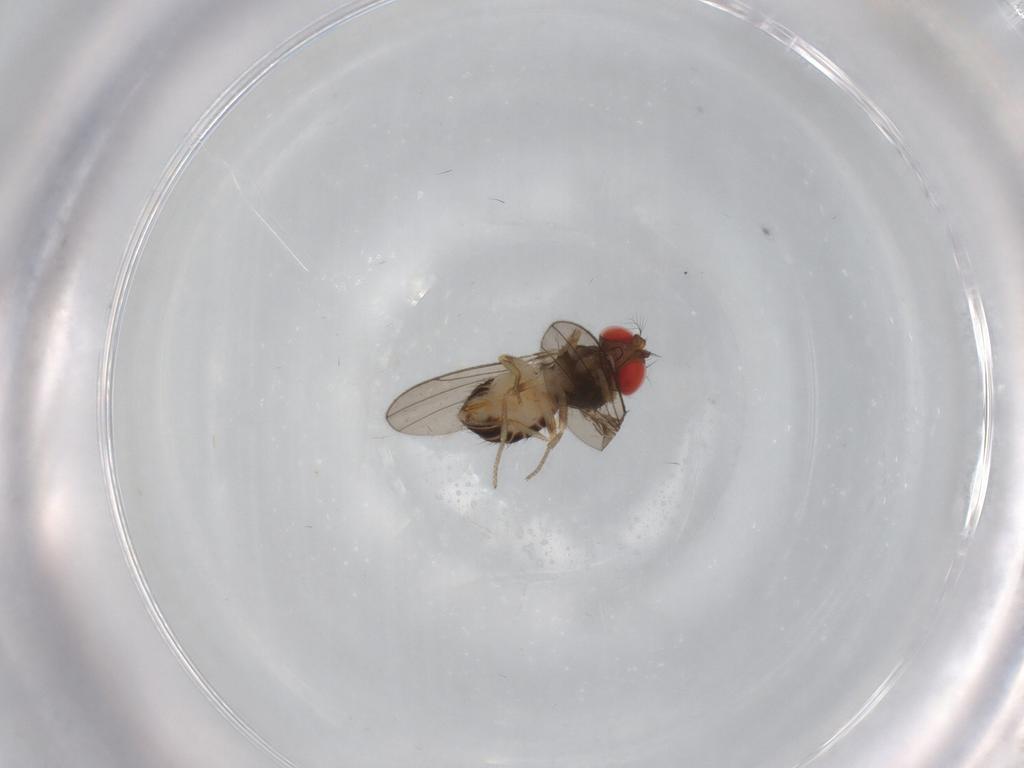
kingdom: Animalia
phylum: Arthropoda
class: Insecta
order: Diptera
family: Drosophilidae
